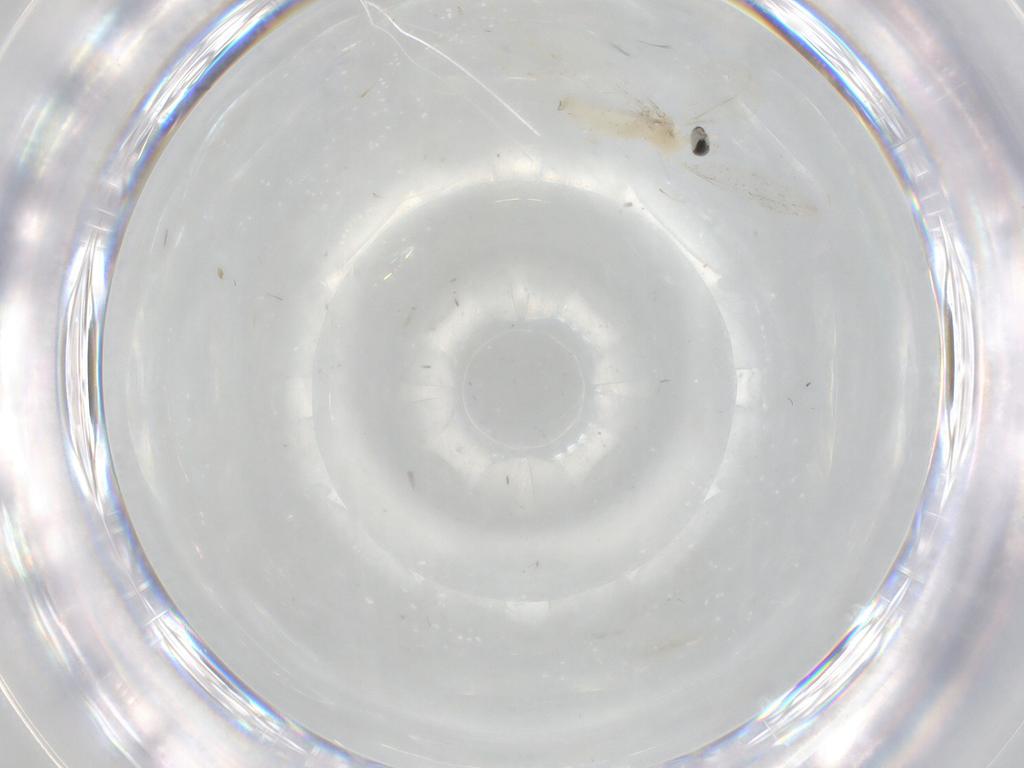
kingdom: Animalia
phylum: Arthropoda
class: Insecta
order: Diptera
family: Cecidomyiidae
